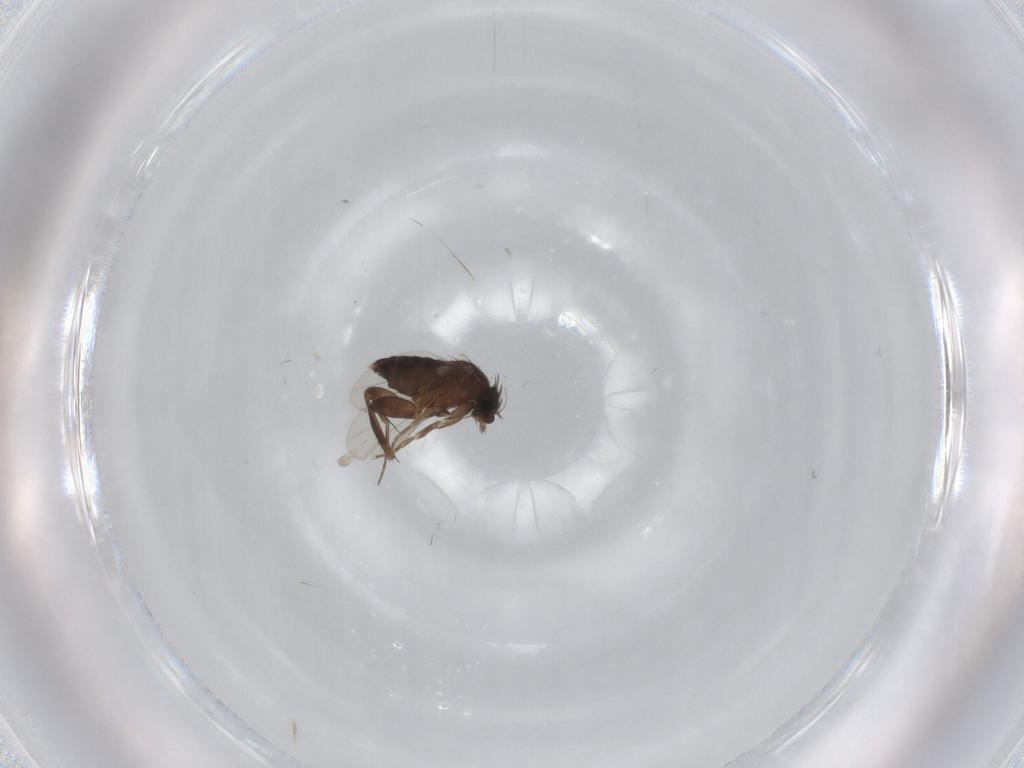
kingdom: Animalia
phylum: Arthropoda
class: Insecta
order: Diptera
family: Phoridae
